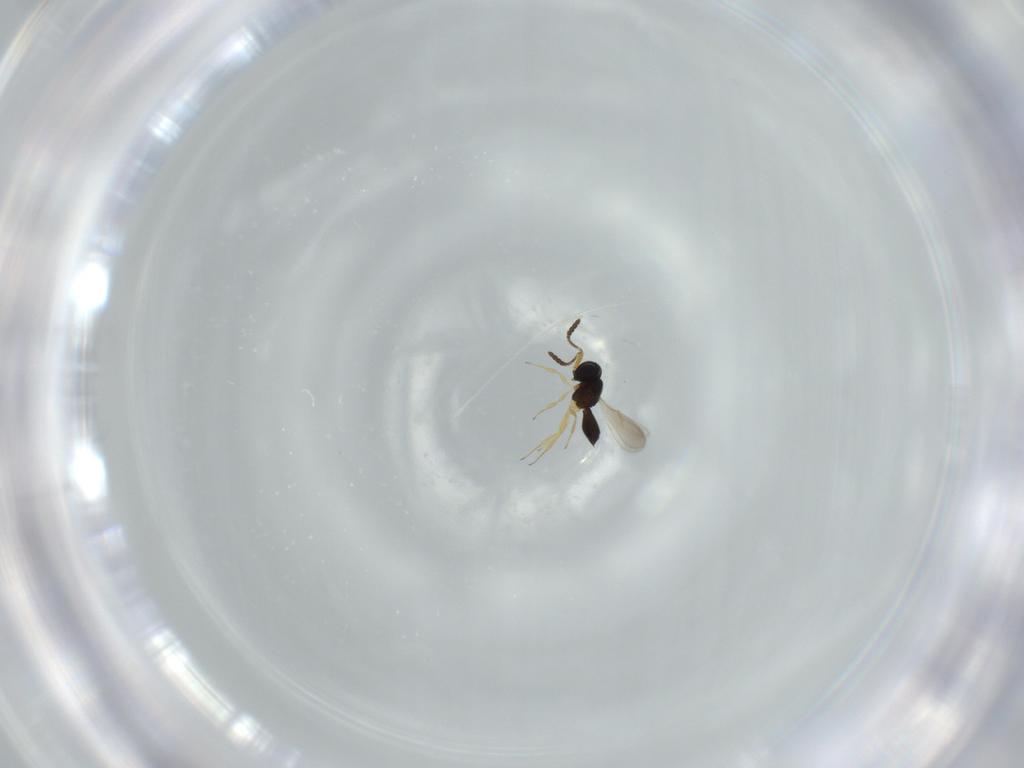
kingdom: Animalia
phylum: Arthropoda
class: Insecta
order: Hymenoptera
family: Scelionidae
